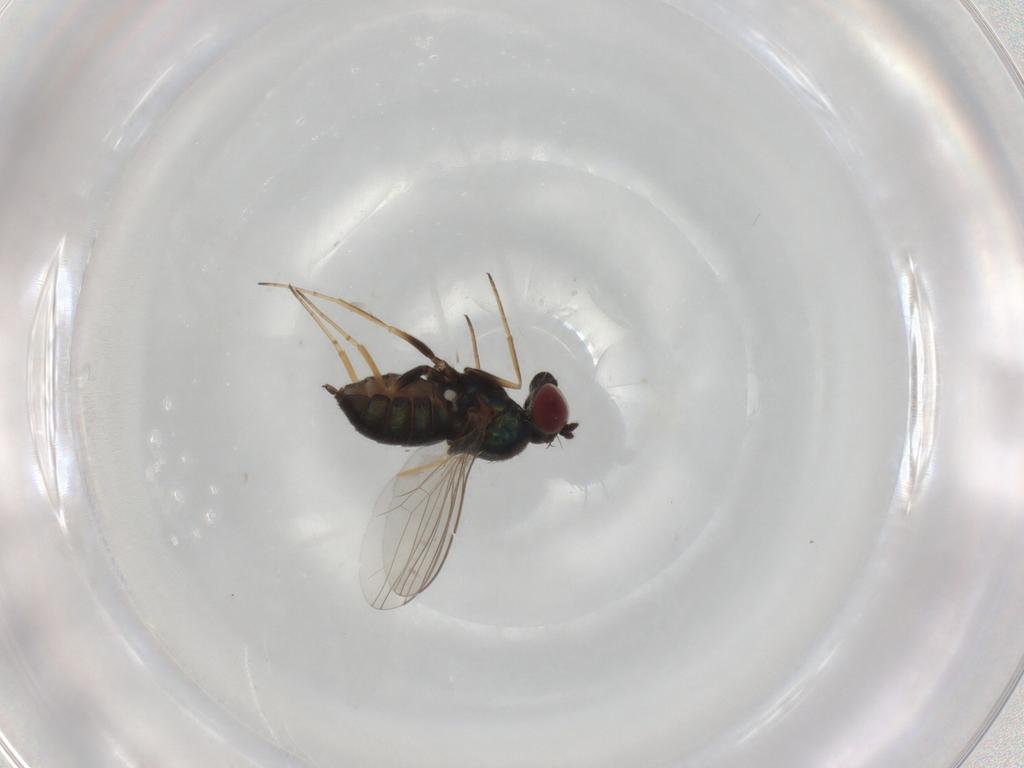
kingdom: Animalia
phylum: Arthropoda
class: Insecta
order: Diptera
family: Dolichopodidae
